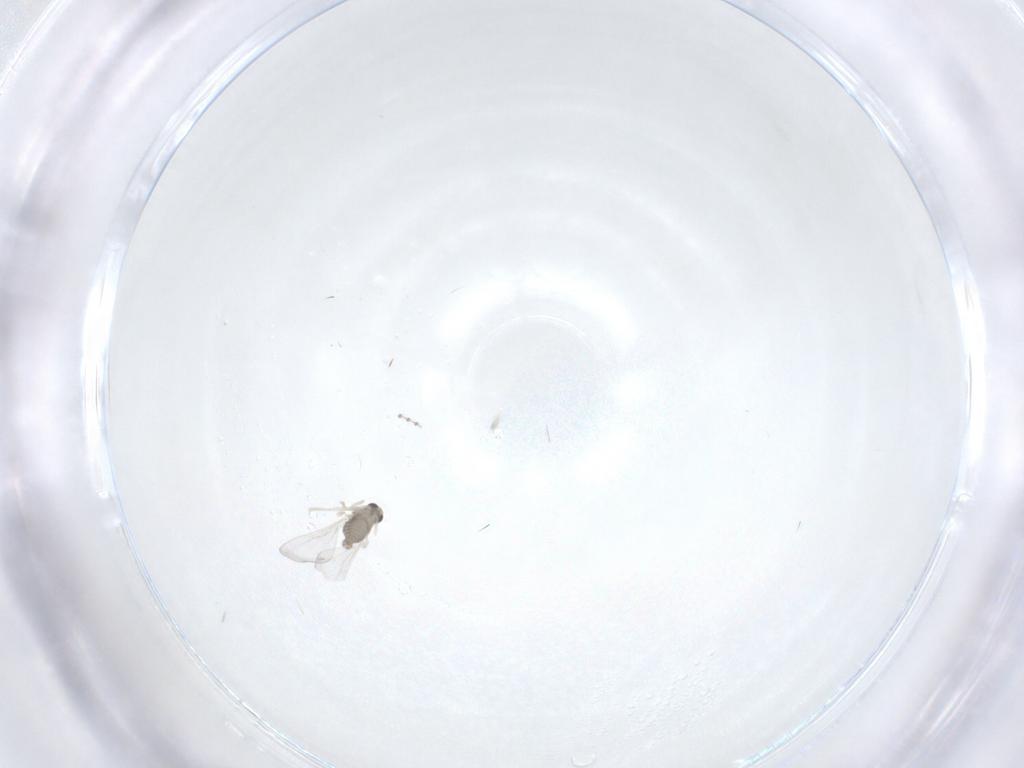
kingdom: Animalia
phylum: Arthropoda
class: Insecta
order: Diptera
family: Cecidomyiidae
